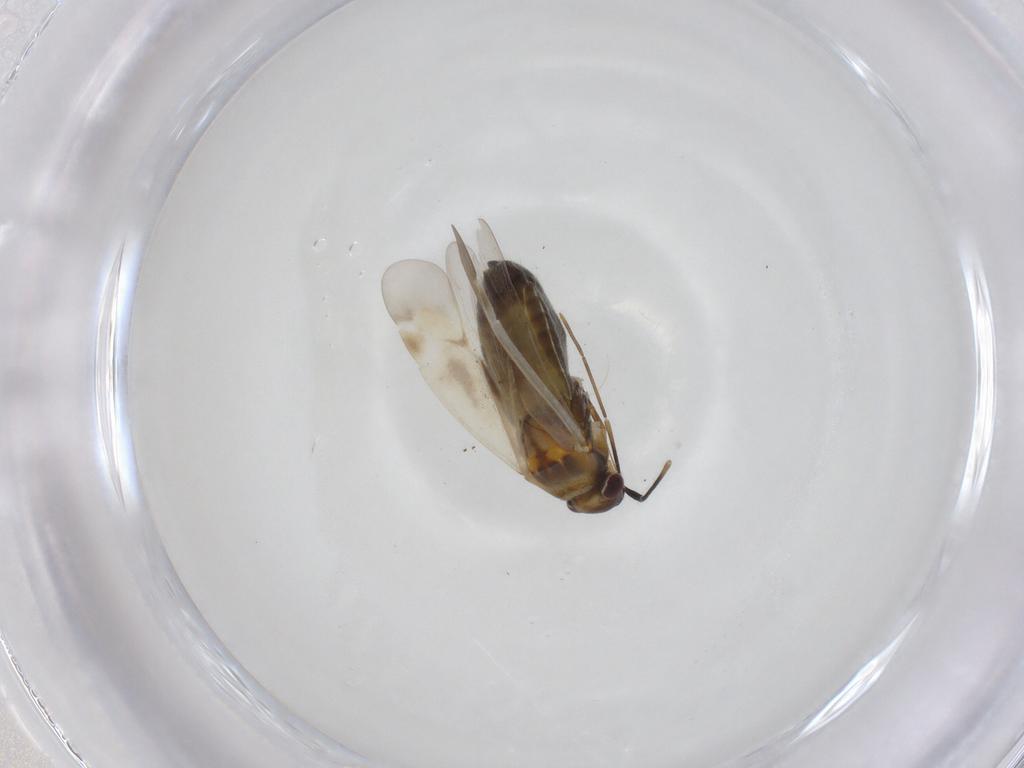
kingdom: Animalia
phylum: Arthropoda
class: Insecta
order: Hemiptera
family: Miridae
